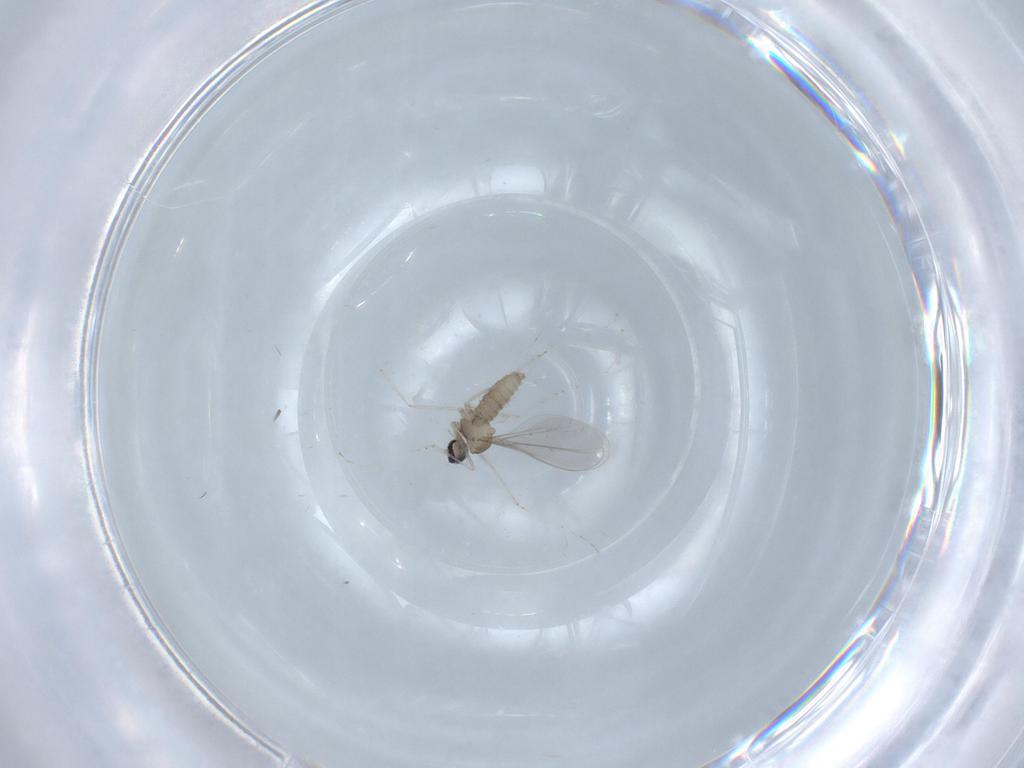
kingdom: Animalia
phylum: Arthropoda
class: Insecta
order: Diptera
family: Cecidomyiidae
